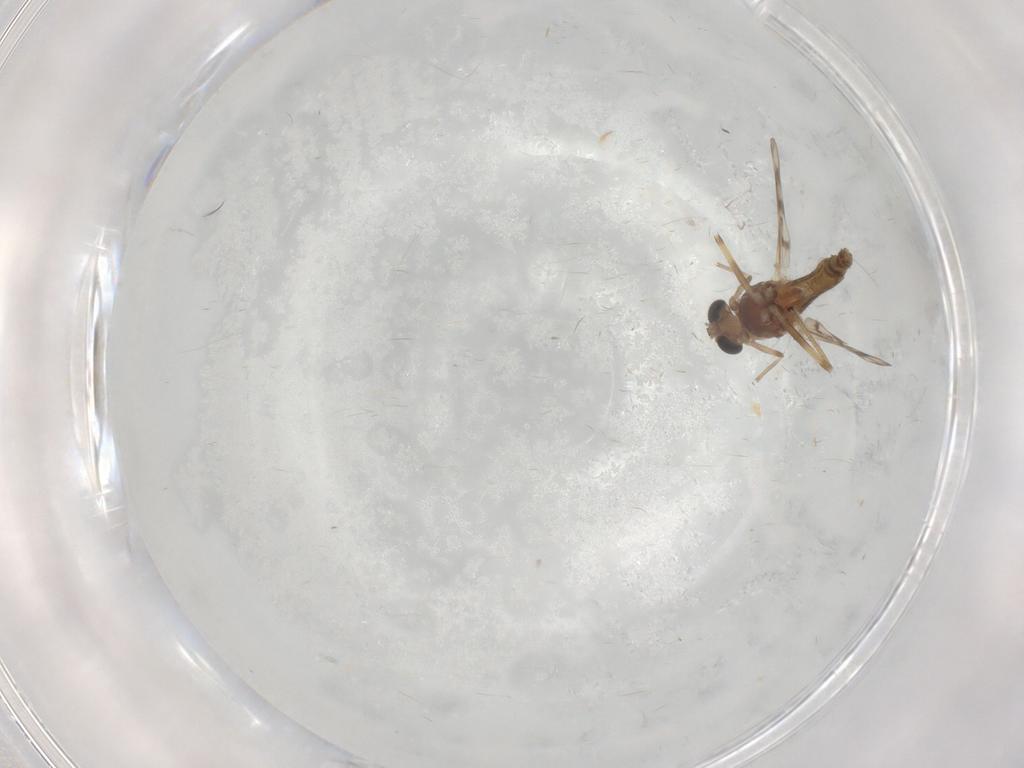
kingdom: Animalia
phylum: Arthropoda
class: Insecta
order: Diptera
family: Chironomidae
